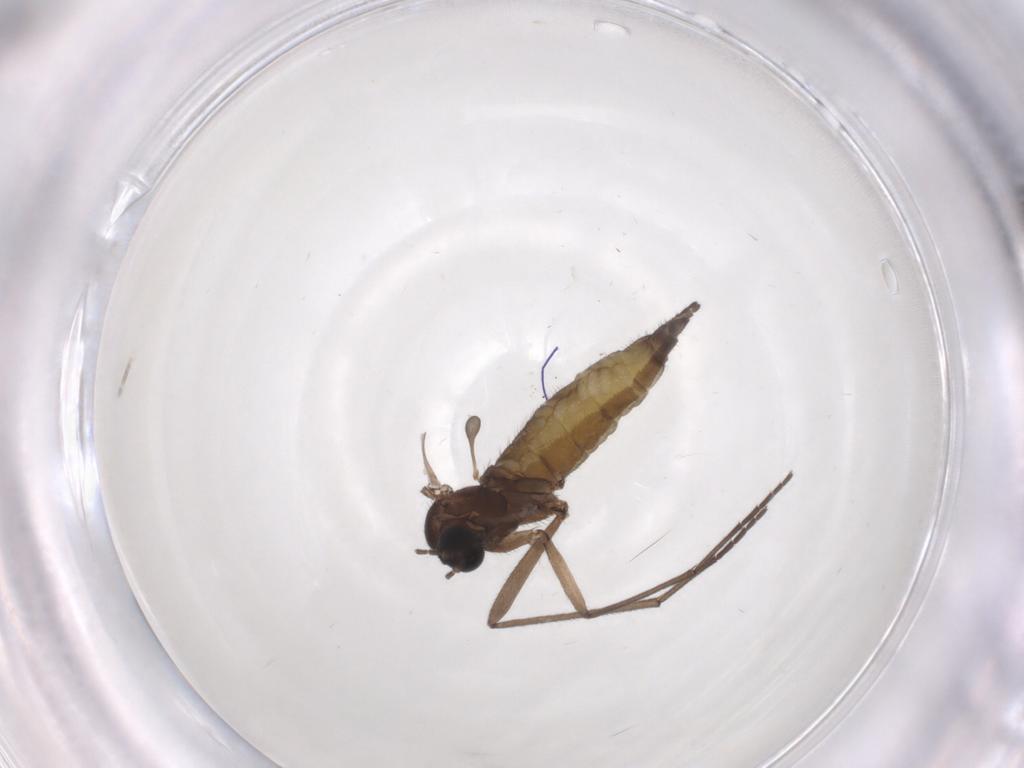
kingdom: Animalia
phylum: Arthropoda
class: Insecta
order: Diptera
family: Sciaridae
